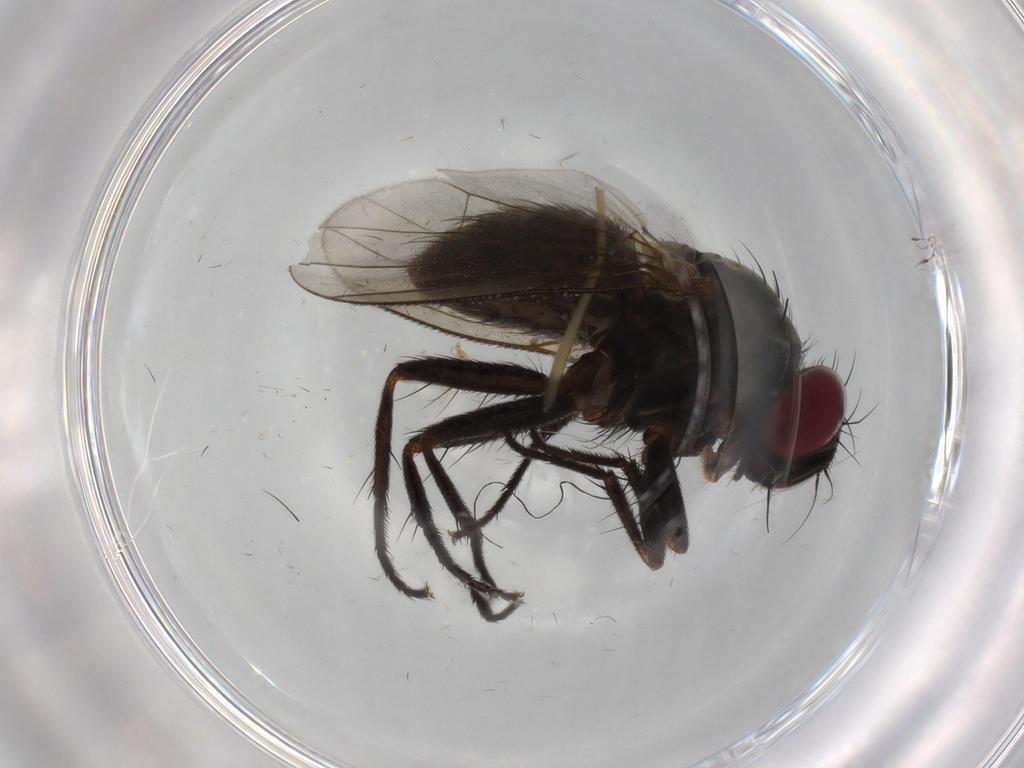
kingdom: Animalia
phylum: Arthropoda
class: Insecta
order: Diptera
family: Muscidae
